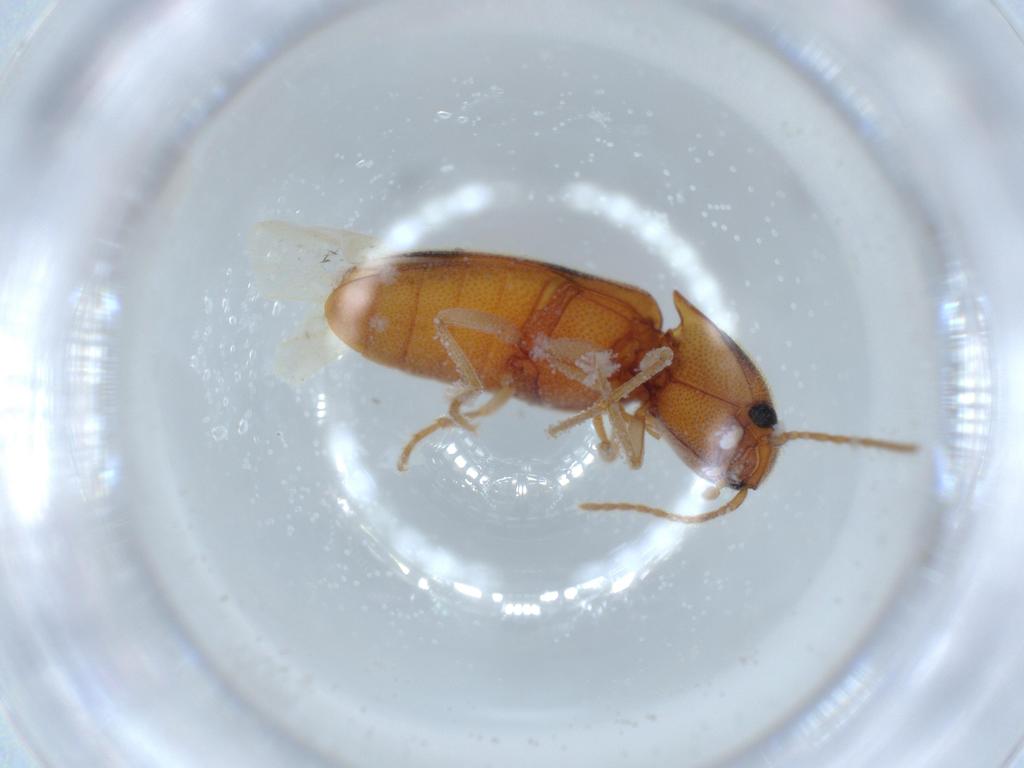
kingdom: Animalia
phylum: Arthropoda
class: Insecta
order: Coleoptera
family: Elateridae
